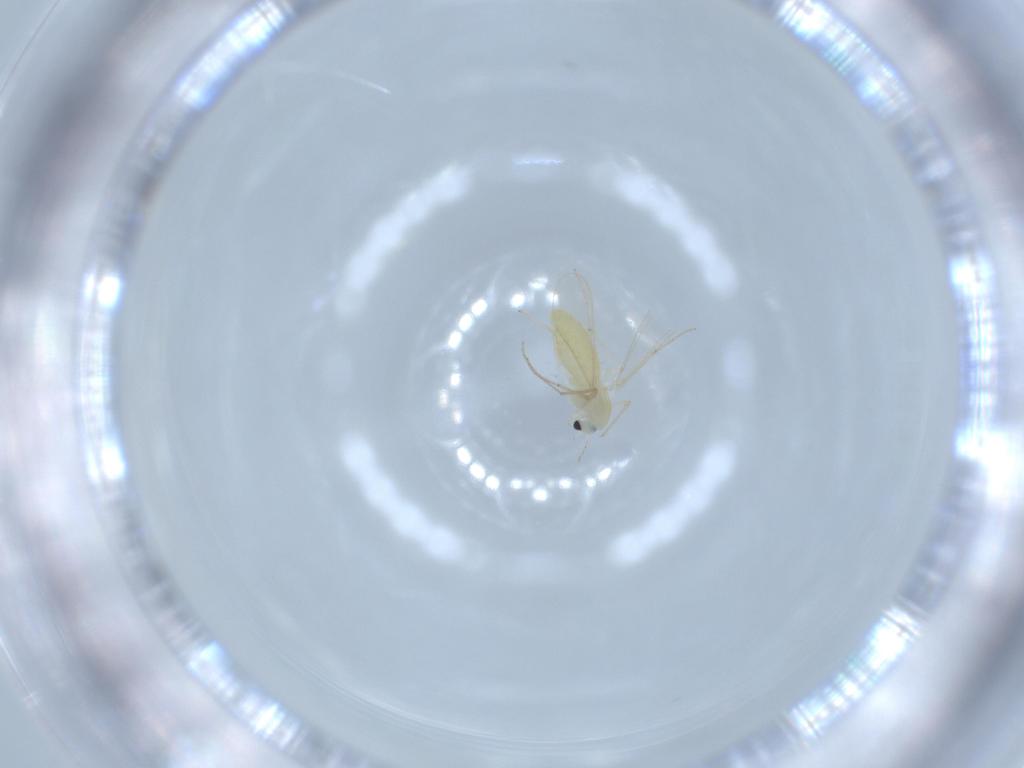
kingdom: Animalia
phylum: Arthropoda
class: Insecta
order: Diptera
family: Chironomidae
